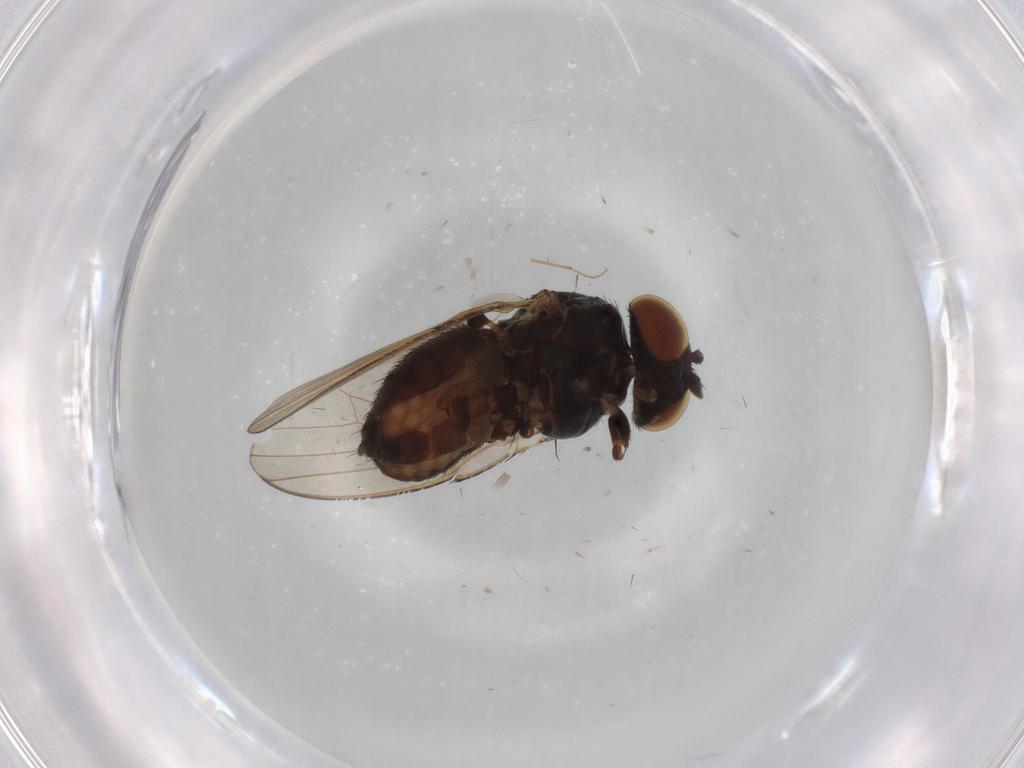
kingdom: Animalia
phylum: Arthropoda
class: Insecta
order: Diptera
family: Milichiidae
